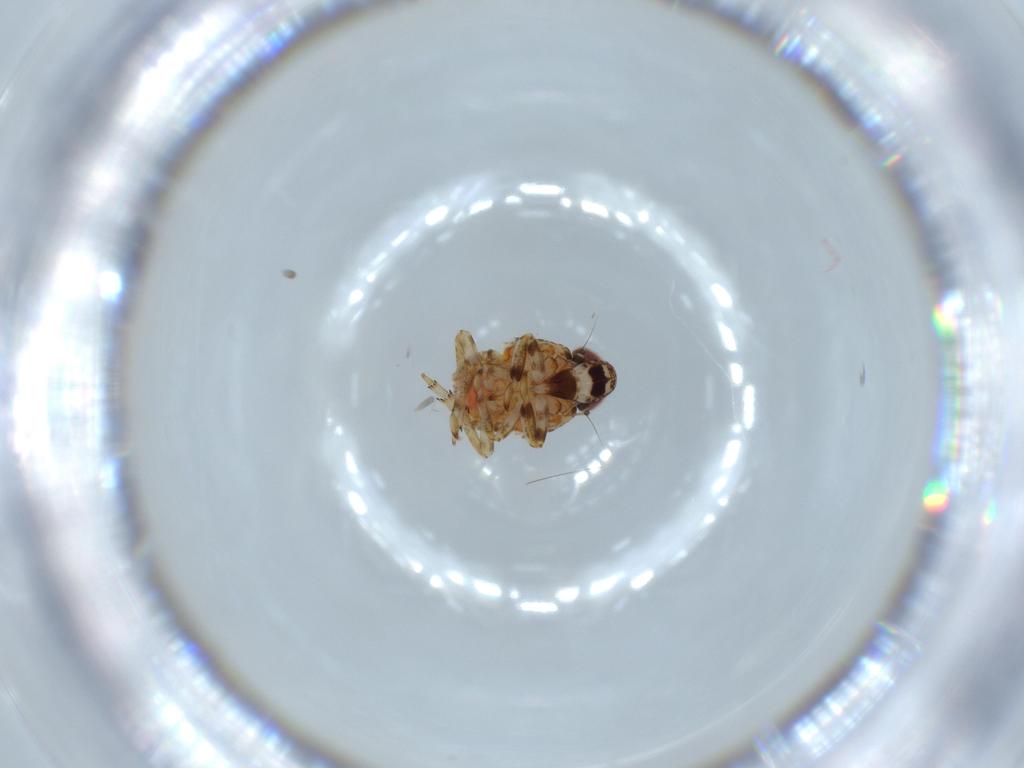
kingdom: Animalia
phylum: Arthropoda
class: Insecta
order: Hemiptera
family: Issidae
